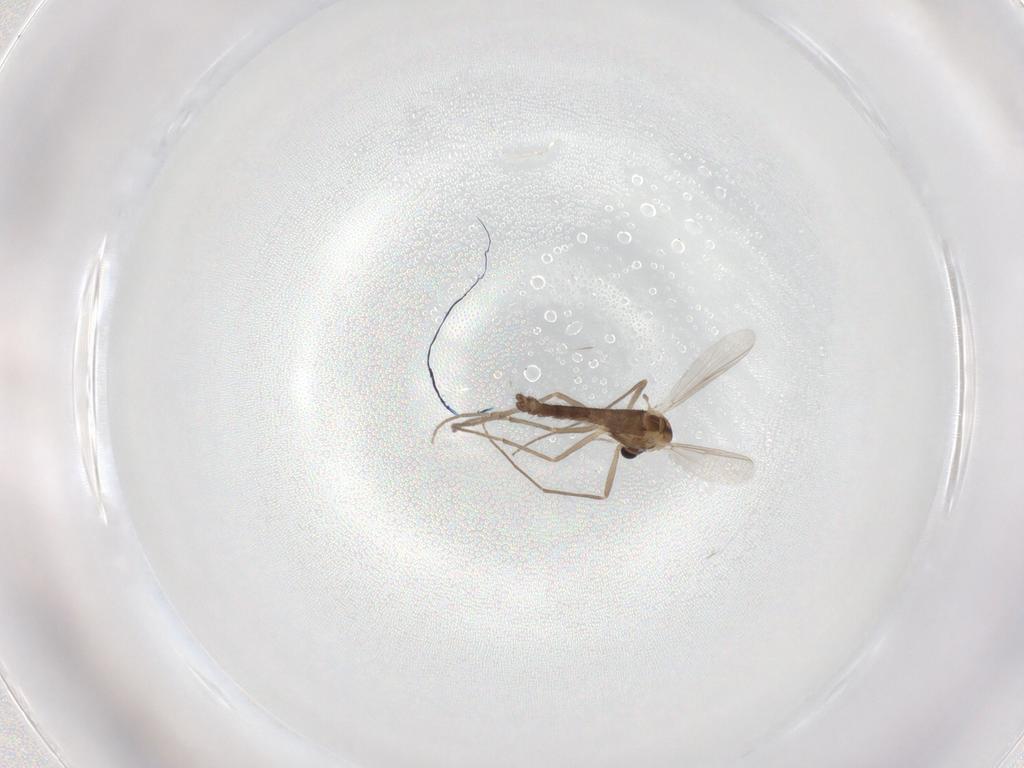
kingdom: Animalia
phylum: Arthropoda
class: Insecta
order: Diptera
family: Chironomidae
